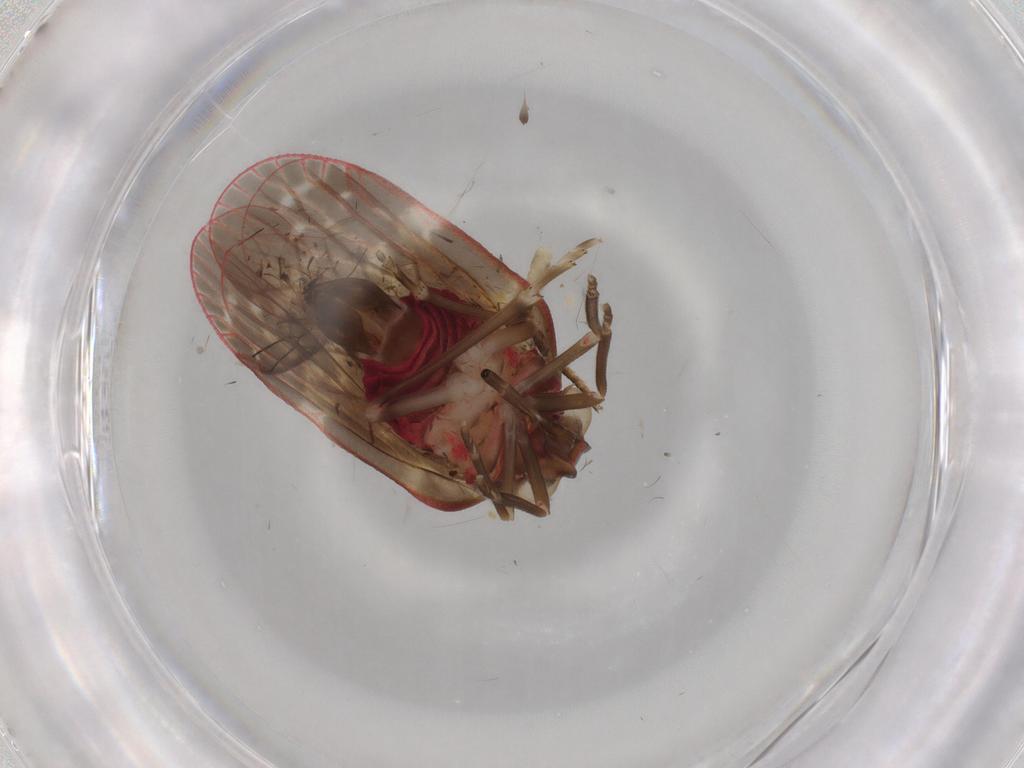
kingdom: Animalia
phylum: Arthropoda
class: Insecta
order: Hemiptera
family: Achilidae
